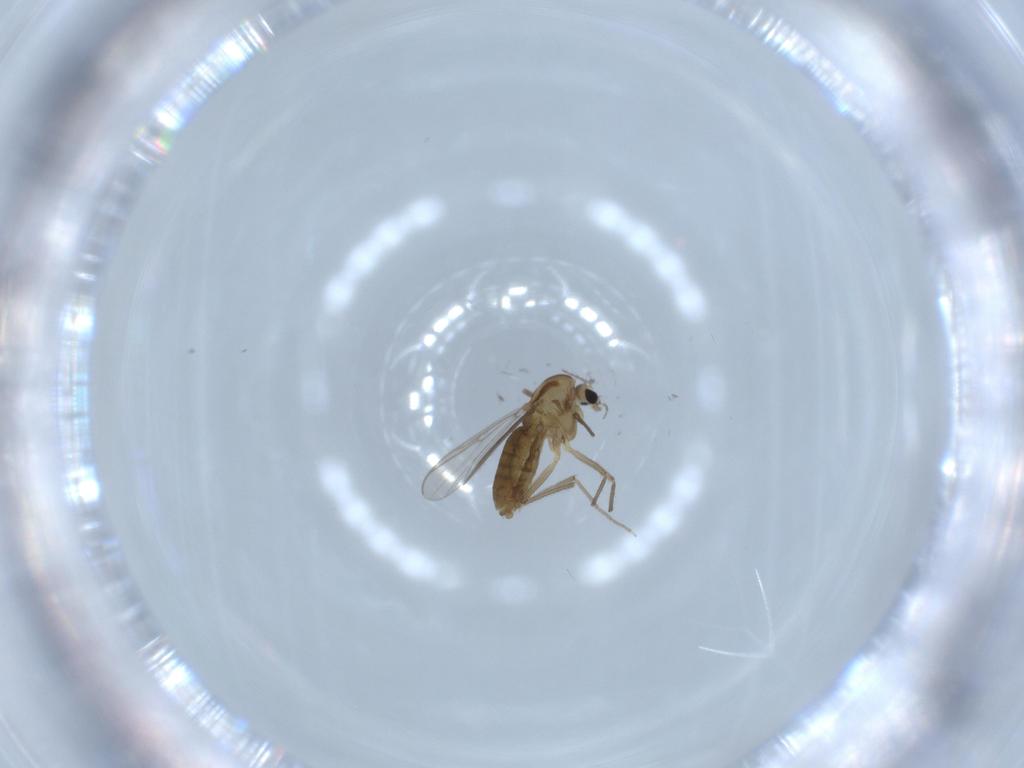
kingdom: Animalia
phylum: Arthropoda
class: Insecta
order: Diptera
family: Chironomidae
